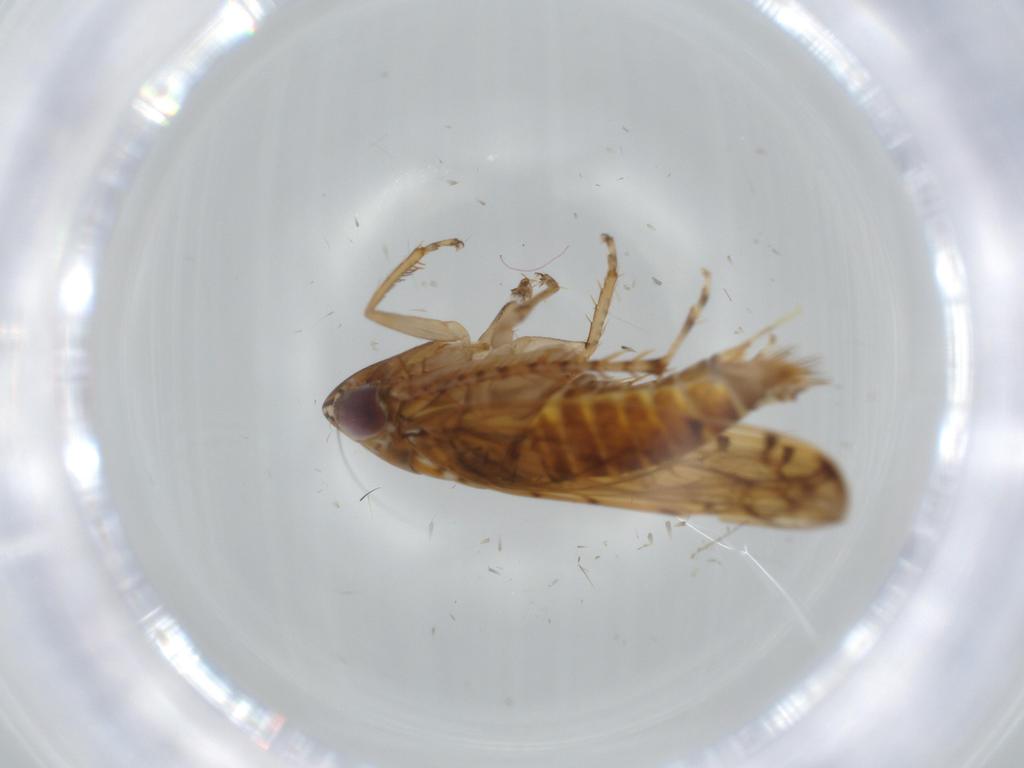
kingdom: Animalia
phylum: Arthropoda
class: Insecta
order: Hemiptera
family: Cicadellidae
